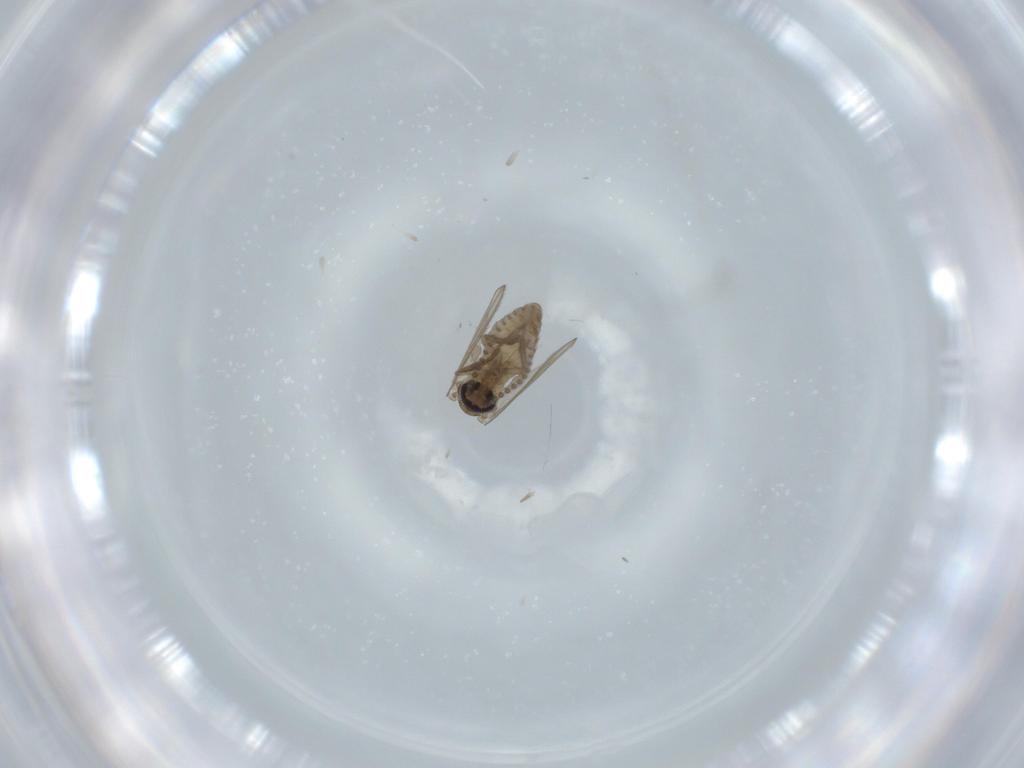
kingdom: Animalia
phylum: Arthropoda
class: Insecta
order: Diptera
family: Psychodidae
